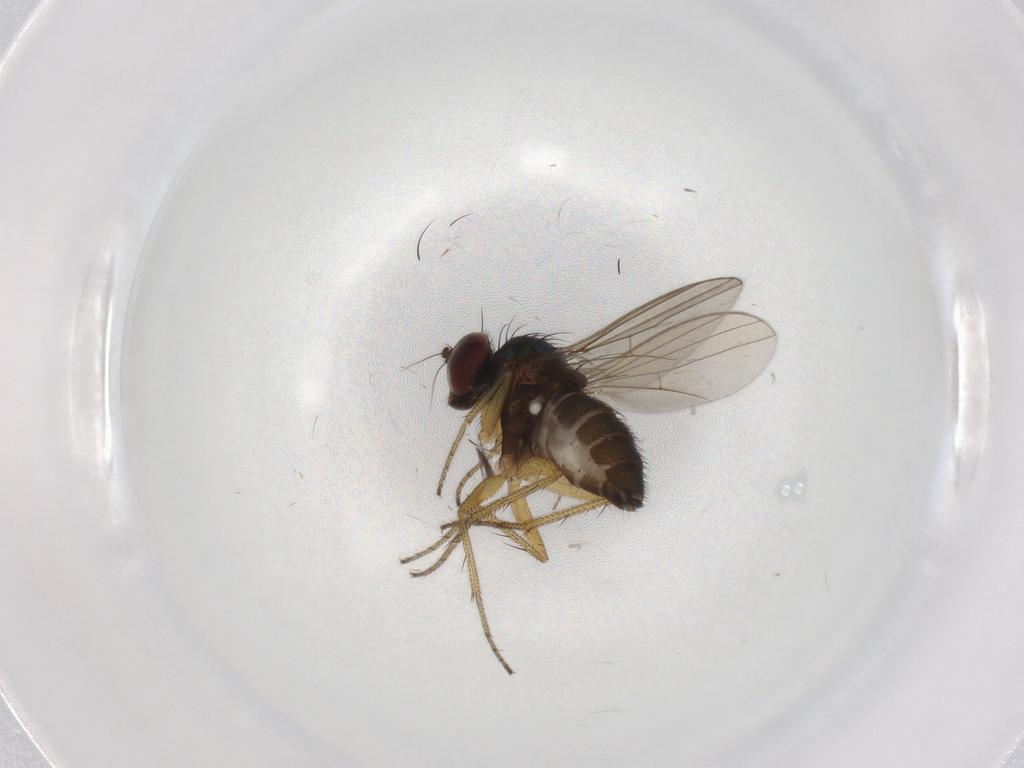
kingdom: Animalia
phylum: Arthropoda
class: Insecta
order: Diptera
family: Dolichopodidae
